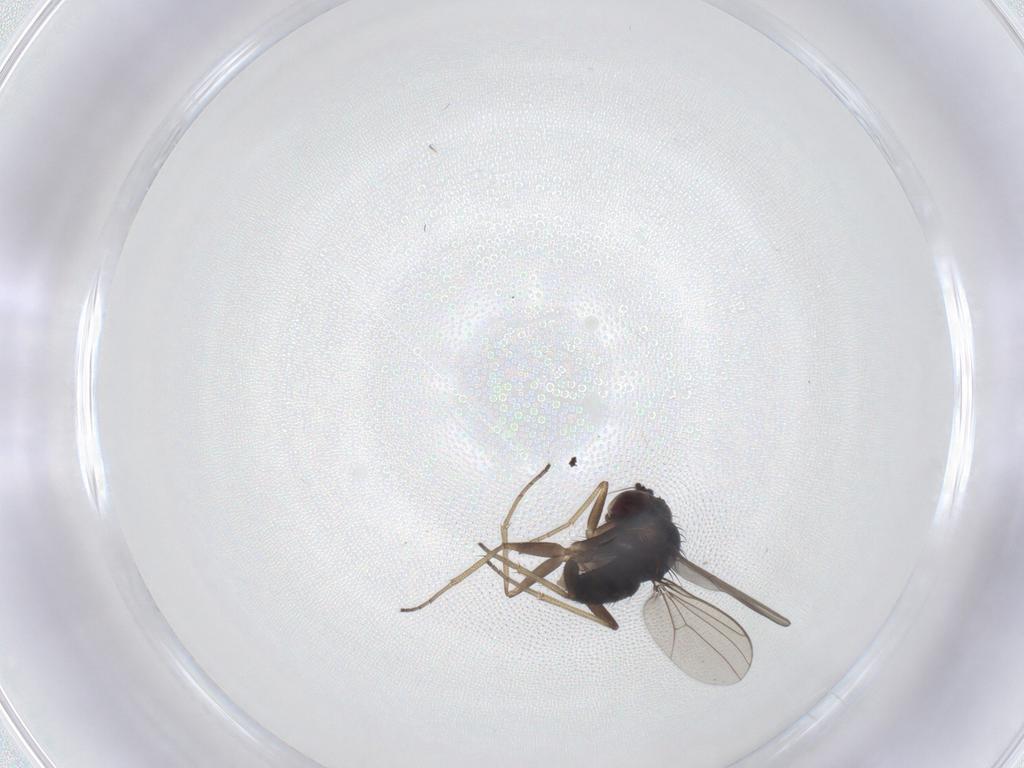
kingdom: Animalia
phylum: Arthropoda
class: Insecta
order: Diptera
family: Dolichopodidae
